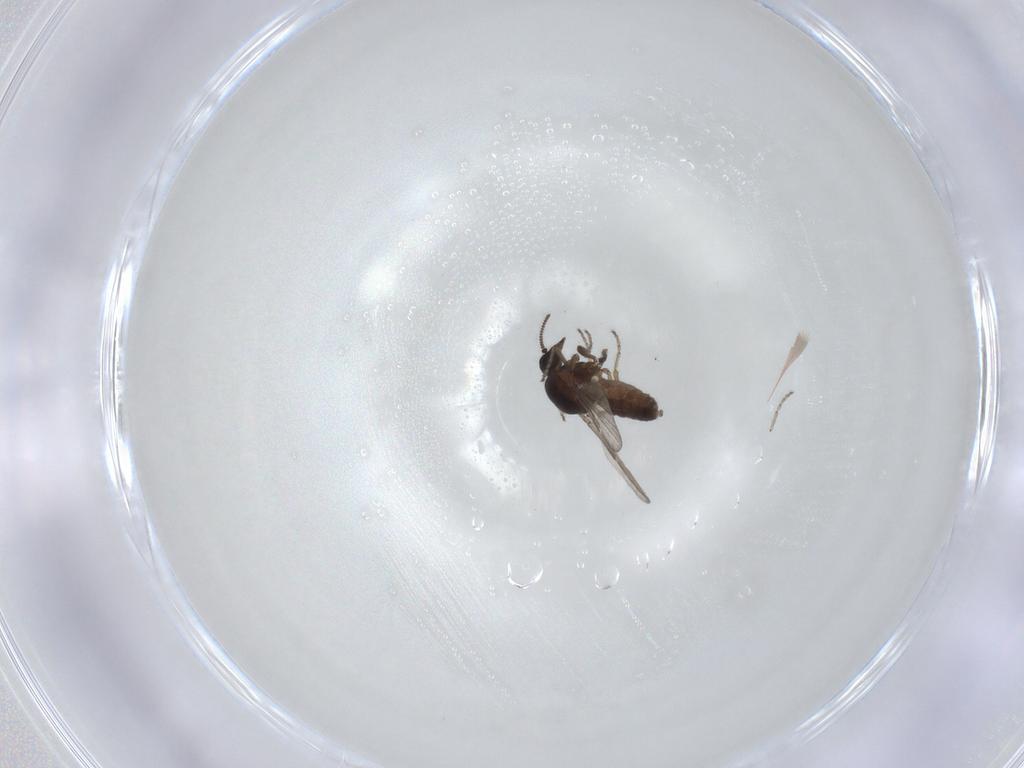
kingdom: Animalia
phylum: Arthropoda
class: Insecta
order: Diptera
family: Ceratopogonidae
